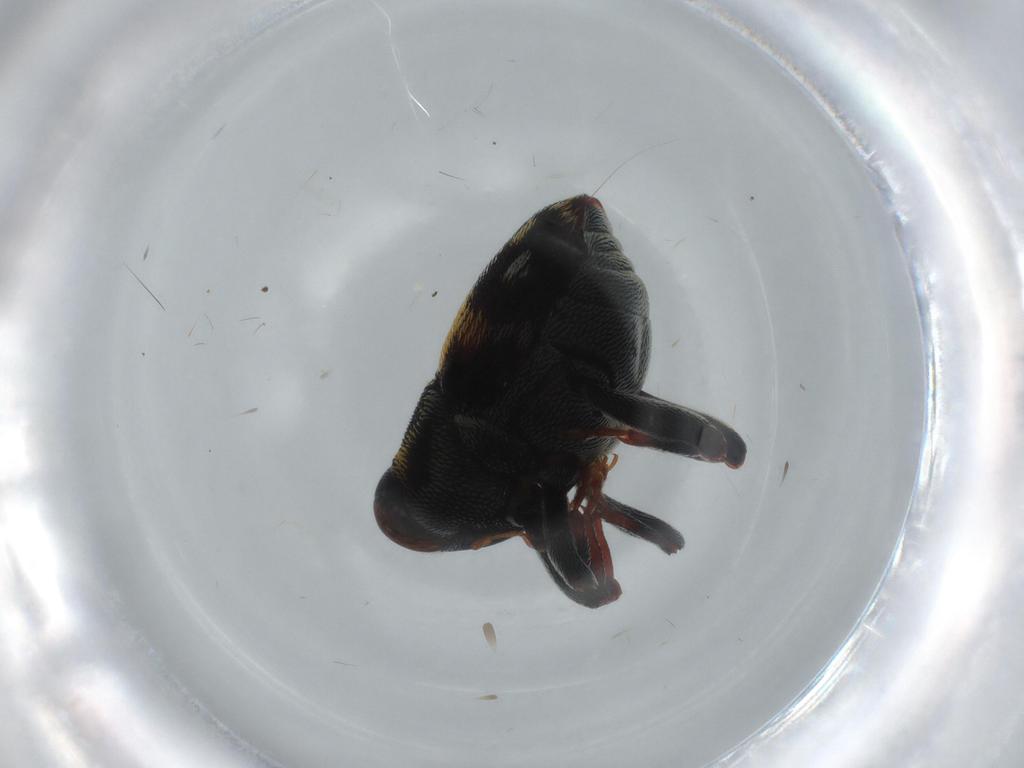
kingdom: Animalia
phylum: Arthropoda
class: Insecta
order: Coleoptera
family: Curculionidae
